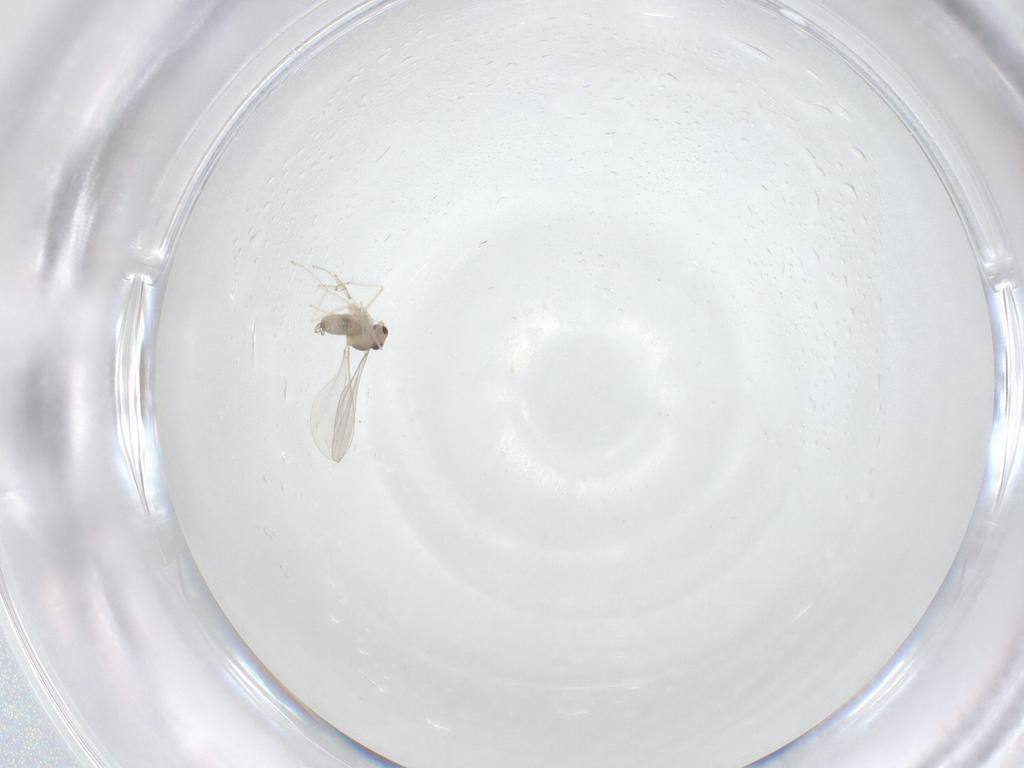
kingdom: Animalia
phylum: Arthropoda
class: Insecta
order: Diptera
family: Cecidomyiidae
